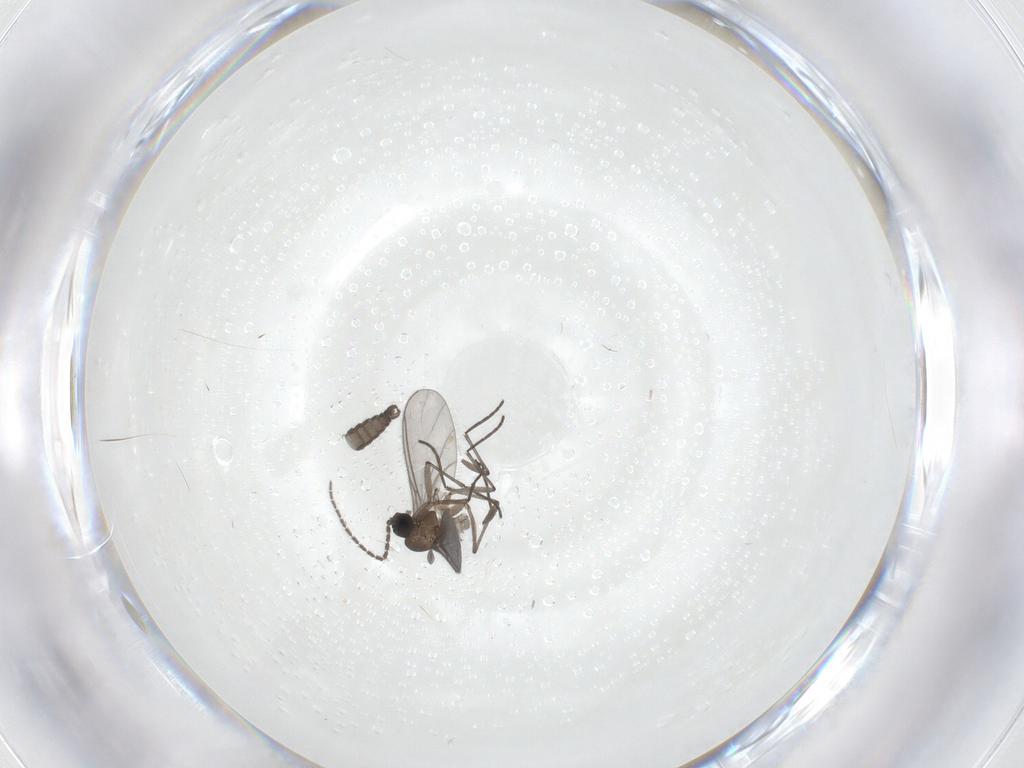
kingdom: Animalia
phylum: Arthropoda
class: Insecta
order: Diptera
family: Sciaridae
